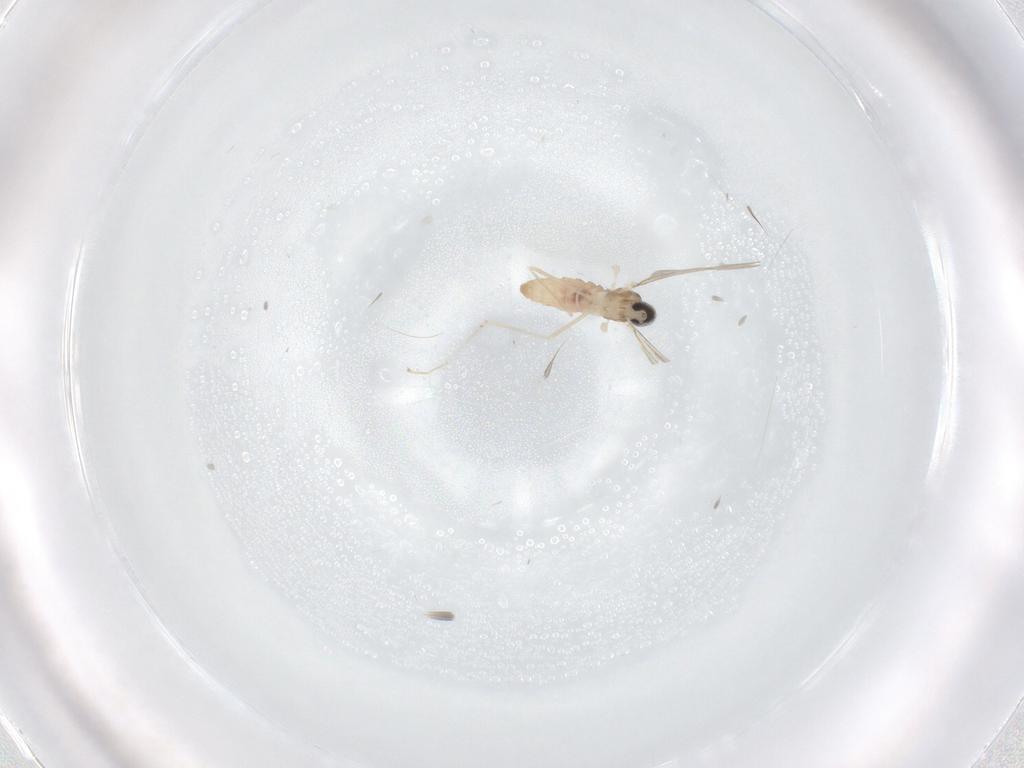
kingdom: Animalia
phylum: Arthropoda
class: Insecta
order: Diptera
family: Cecidomyiidae
